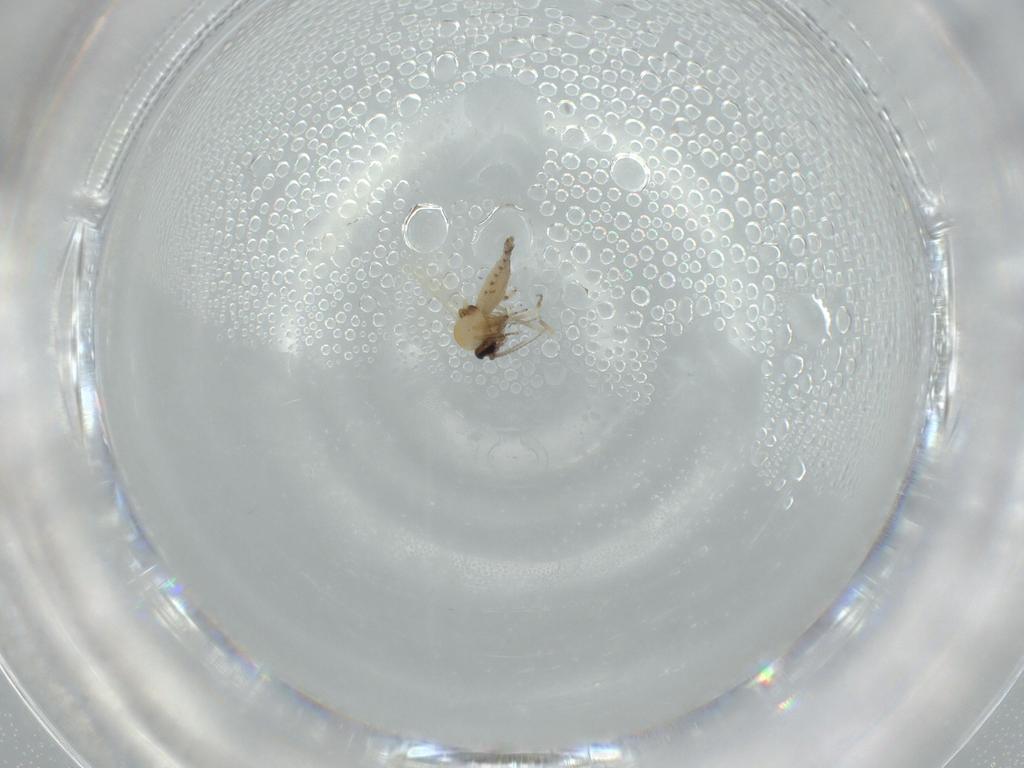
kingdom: Animalia
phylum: Arthropoda
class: Insecta
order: Diptera
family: Ceratopogonidae
